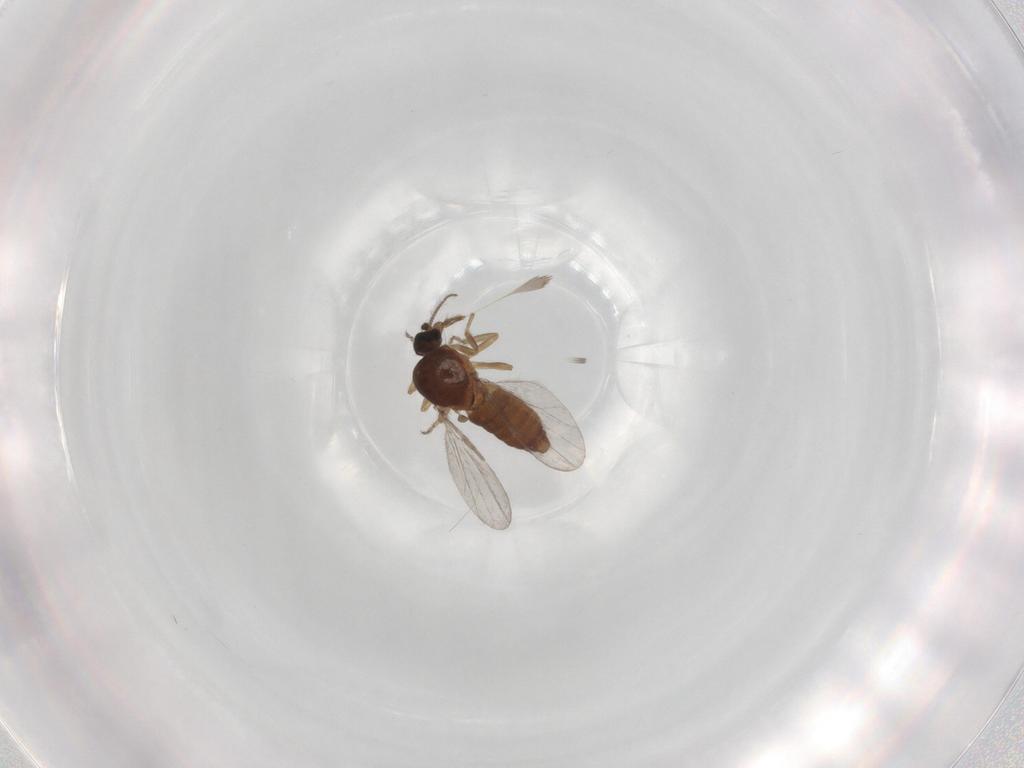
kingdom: Animalia
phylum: Arthropoda
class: Insecta
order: Diptera
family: Ceratopogonidae
